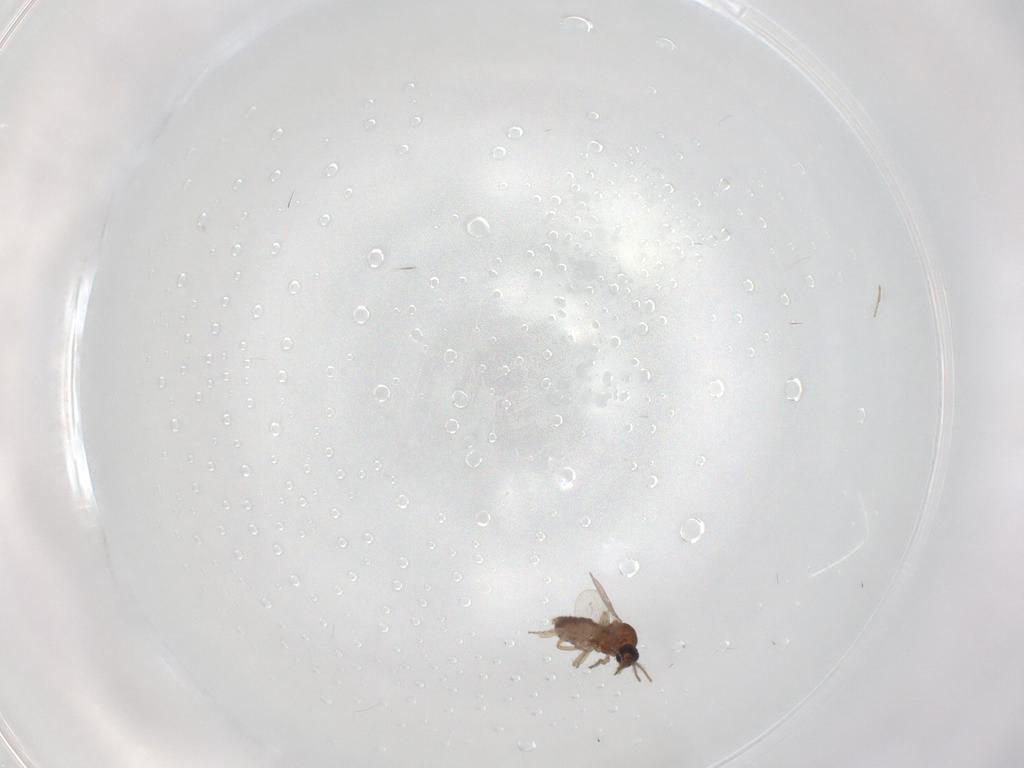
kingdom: Animalia
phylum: Arthropoda
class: Insecta
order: Diptera
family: Ceratopogonidae
